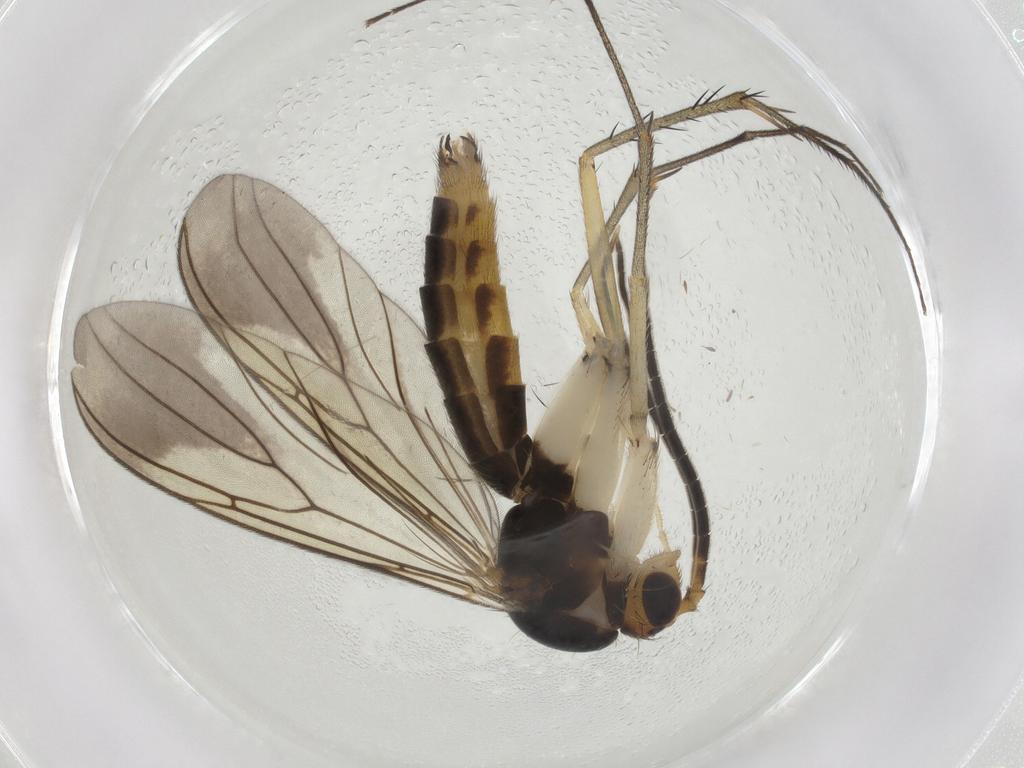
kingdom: Animalia
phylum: Arthropoda
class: Insecta
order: Diptera
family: Sciaridae
